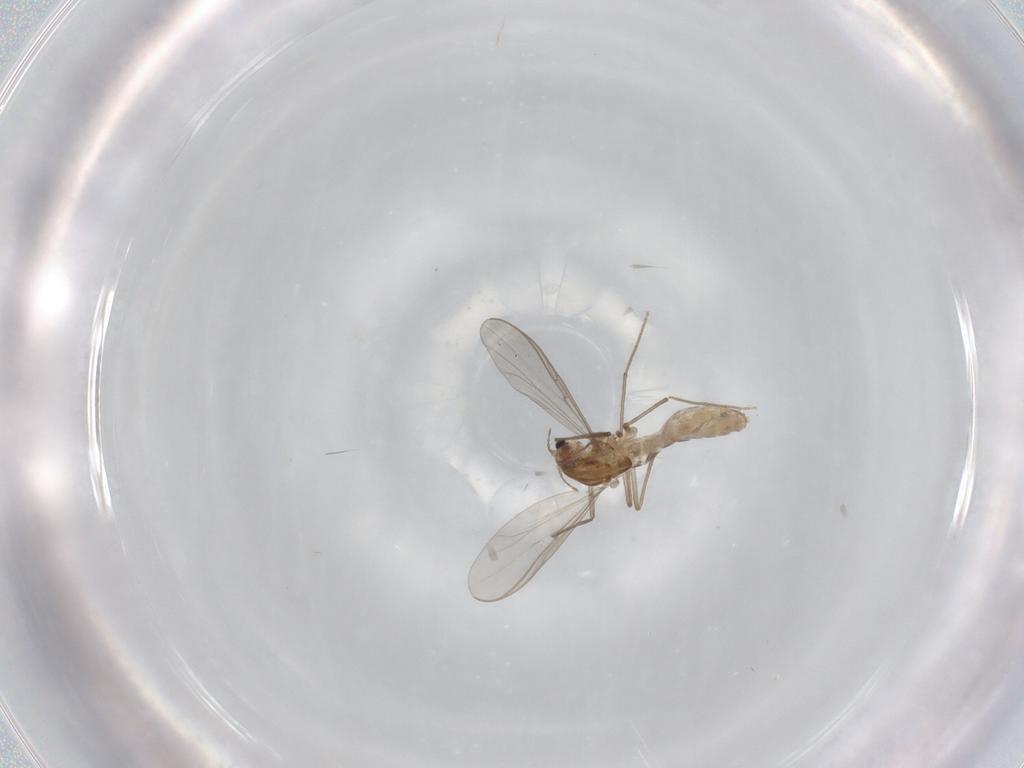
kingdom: Animalia
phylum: Arthropoda
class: Insecta
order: Diptera
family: Chironomidae
